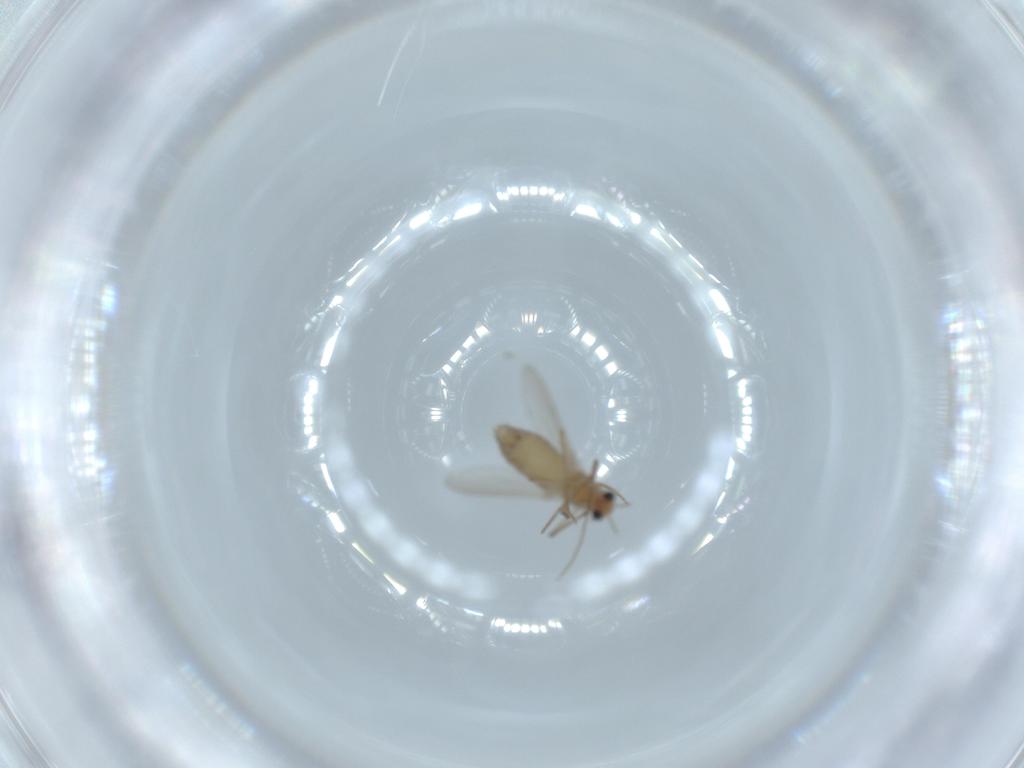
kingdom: Animalia
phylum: Arthropoda
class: Insecta
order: Diptera
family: Chironomidae
